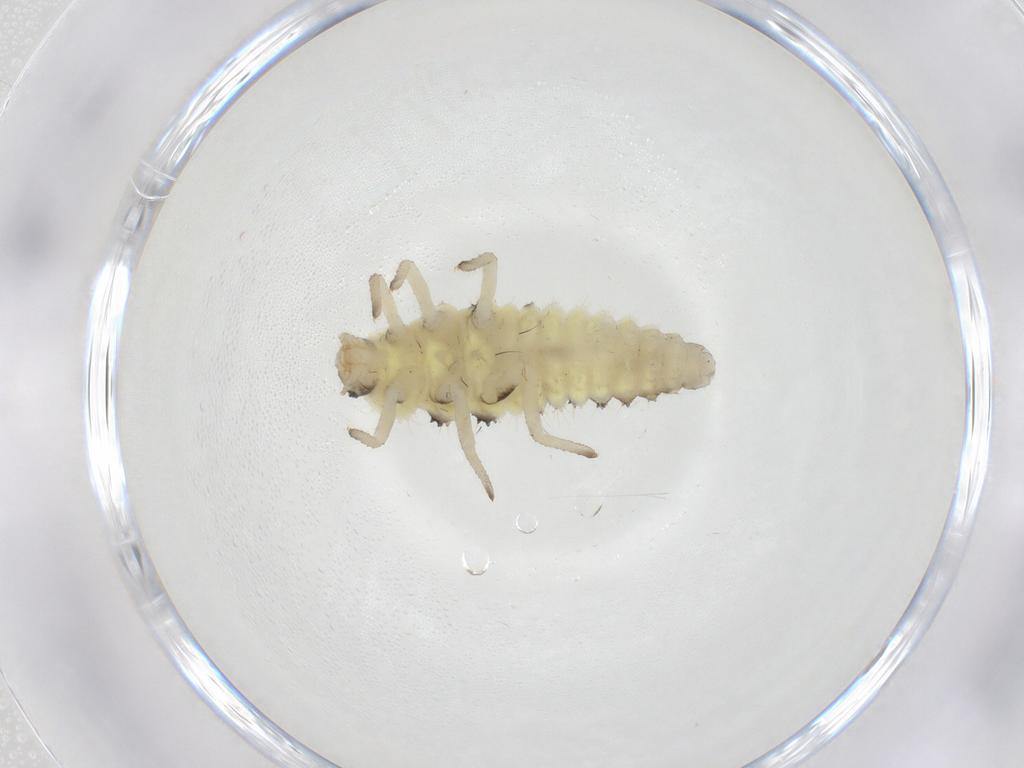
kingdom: Animalia
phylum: Arthropoda
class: Insecta
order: Coleoptera
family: Coccinellidae
